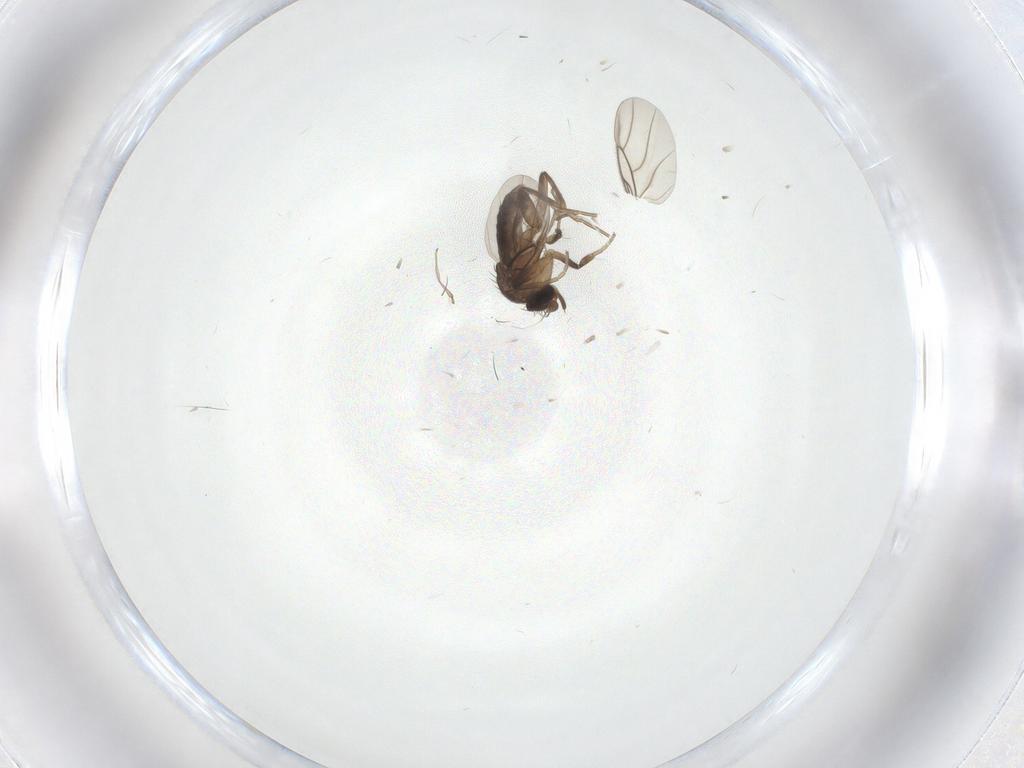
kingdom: Animalia
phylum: Arthropoda
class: Insecta
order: Diptera
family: Phoridae
